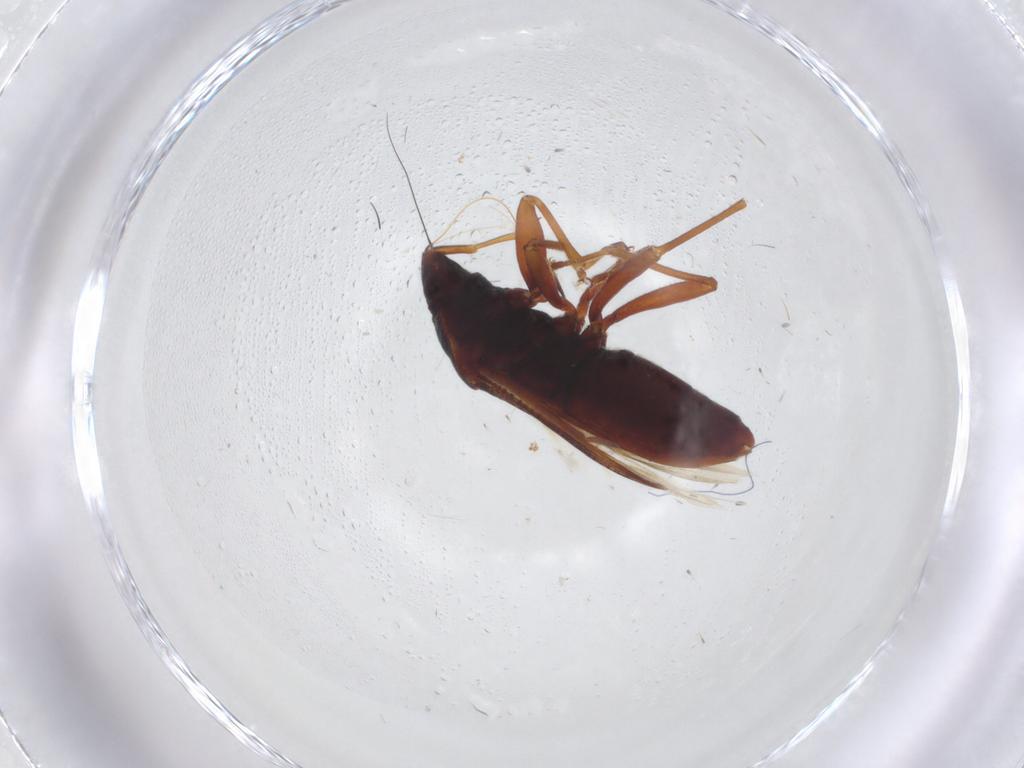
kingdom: Animalia
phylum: Arthropoda
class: Insecta
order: Hemiptera
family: Rhyparochromidae
